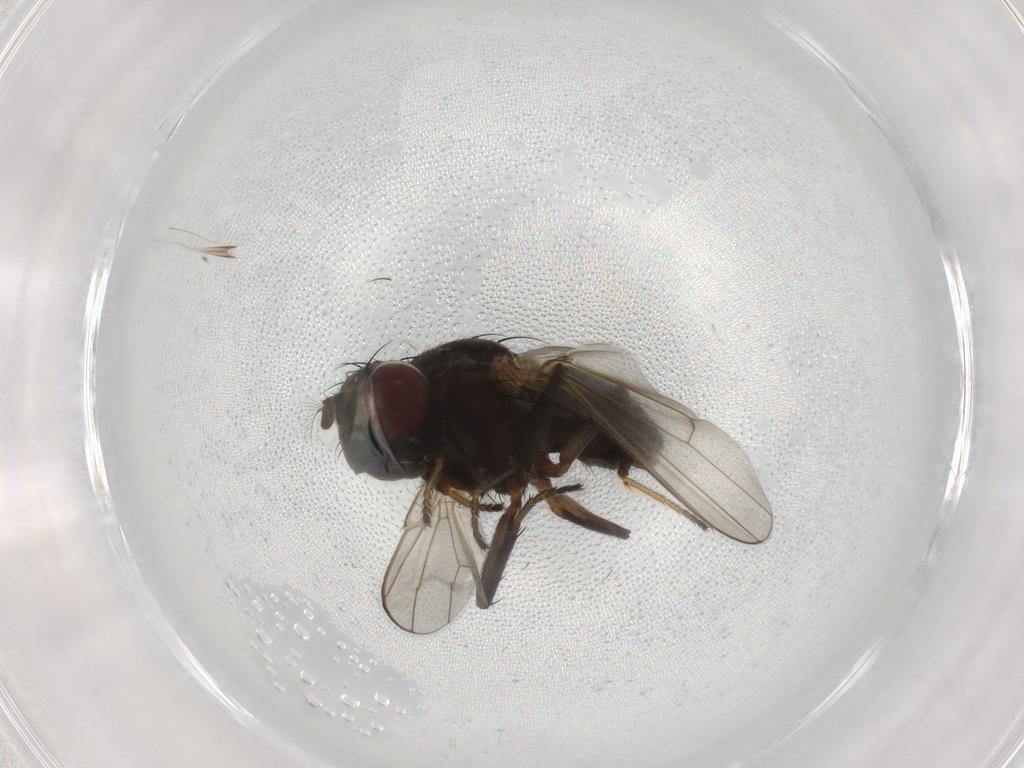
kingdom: Animalia
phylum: Arthropoda
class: Insecta
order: Diptera
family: Ephydridae
